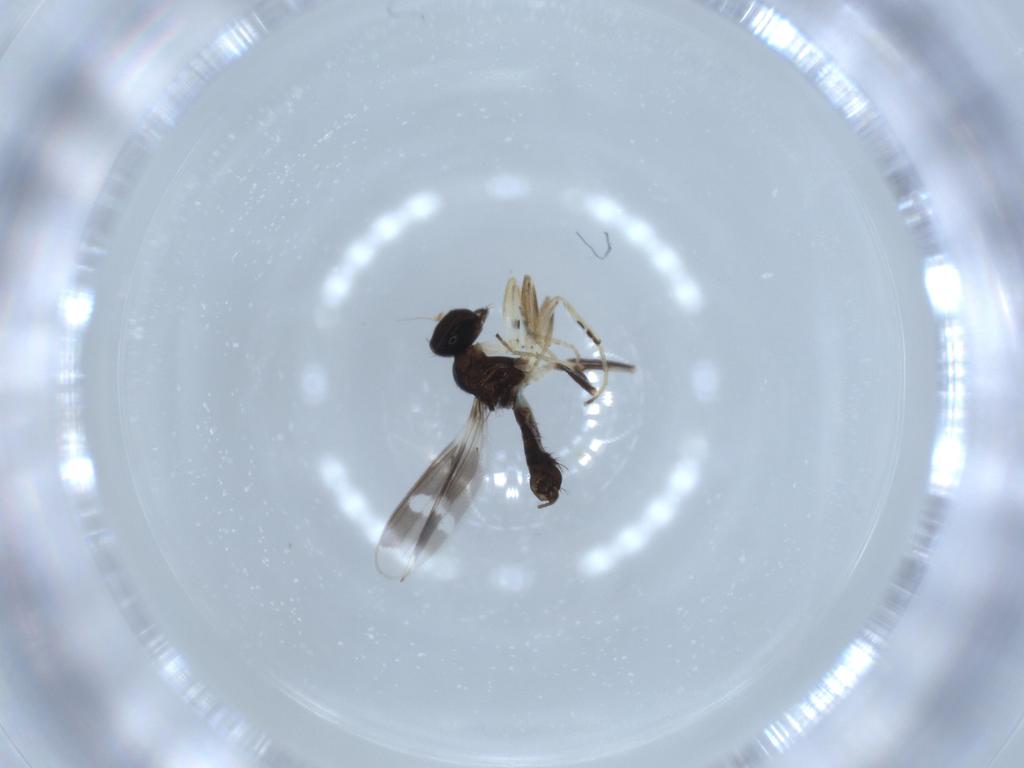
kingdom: Animalia
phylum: Arthropoda
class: Insecta
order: Diptera
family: Hybotidae
